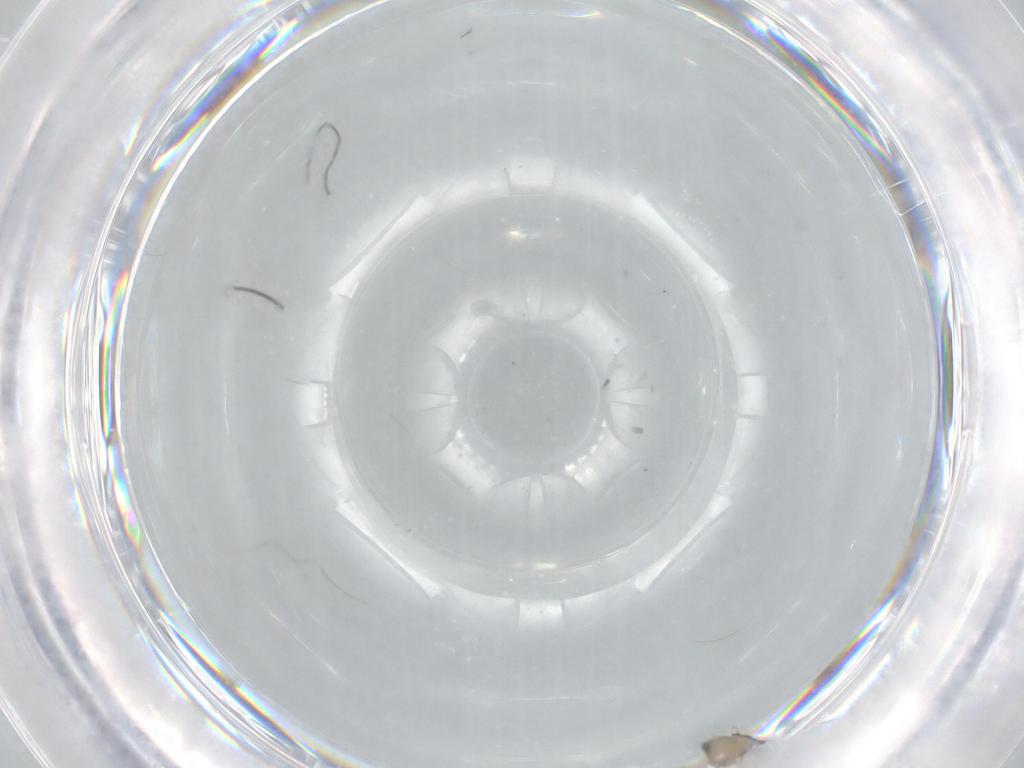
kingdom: Animalia
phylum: Arthropoda
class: Insecta
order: Diptera
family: Cecidomyiidae
